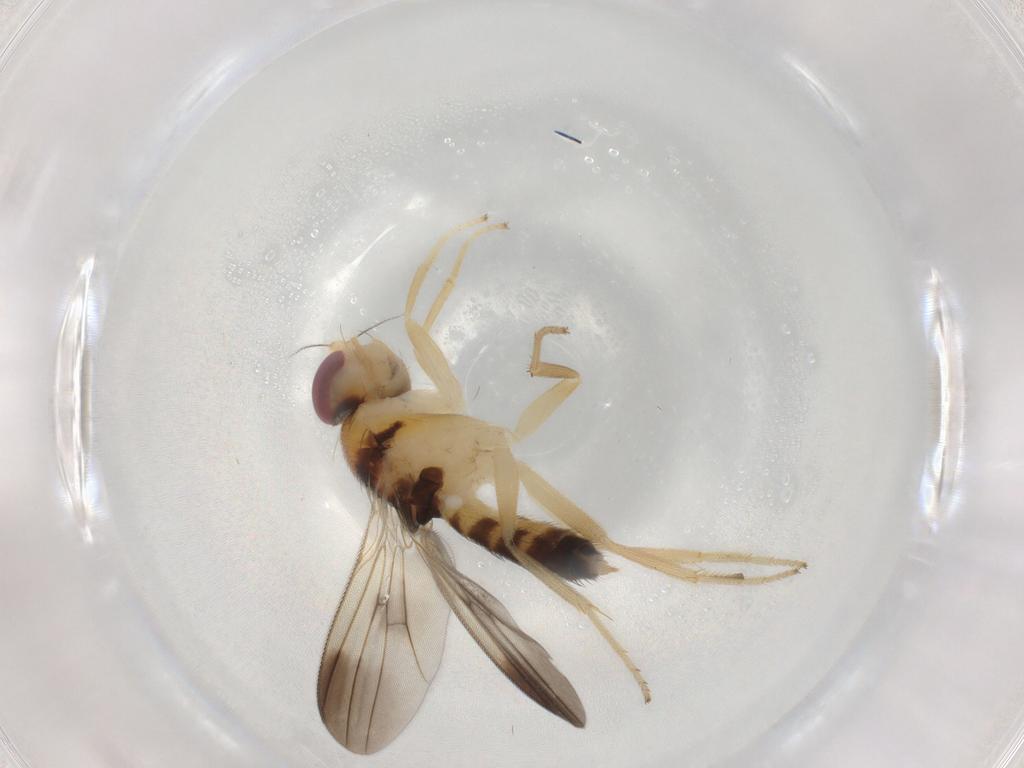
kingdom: Animalia
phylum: Arthropoda
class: Insecta
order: Diptera
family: Clusiidae
